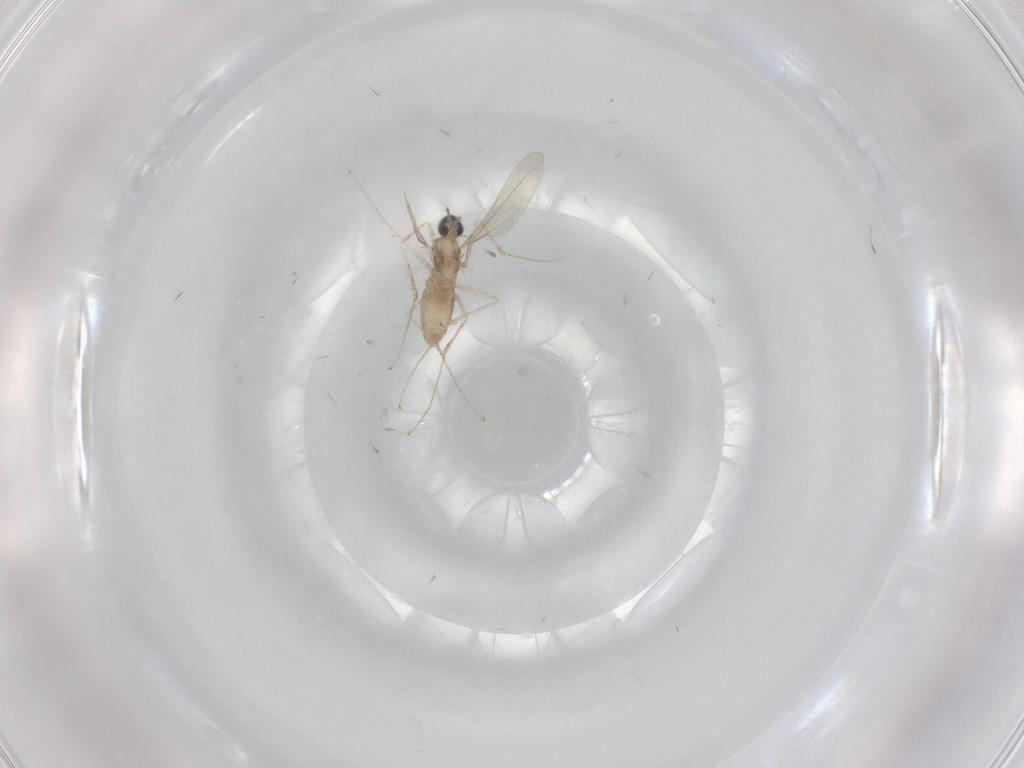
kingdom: Animalia
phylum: Arthropoda
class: Insecta
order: Diptera
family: Cecidomyiidae
